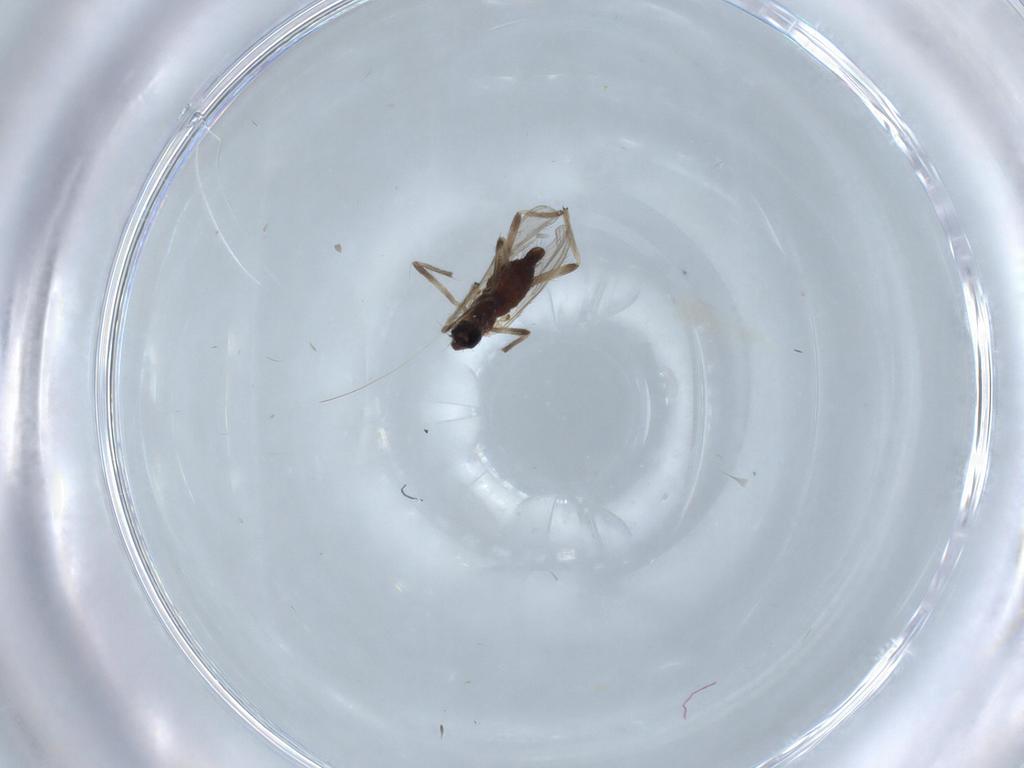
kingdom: Animalia
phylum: Arthropoda
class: Insecta
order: Diptera
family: Chironomidae
